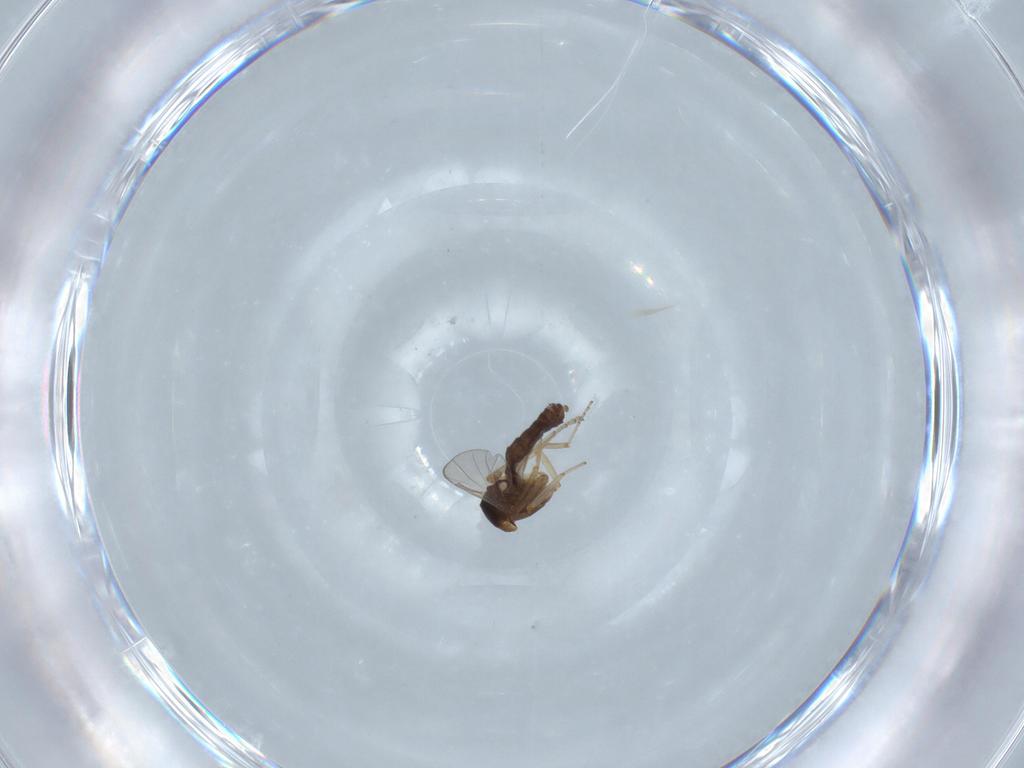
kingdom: Animalia
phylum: Arthropoda
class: Insecta
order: Diptera
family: Ceratopogonidae
